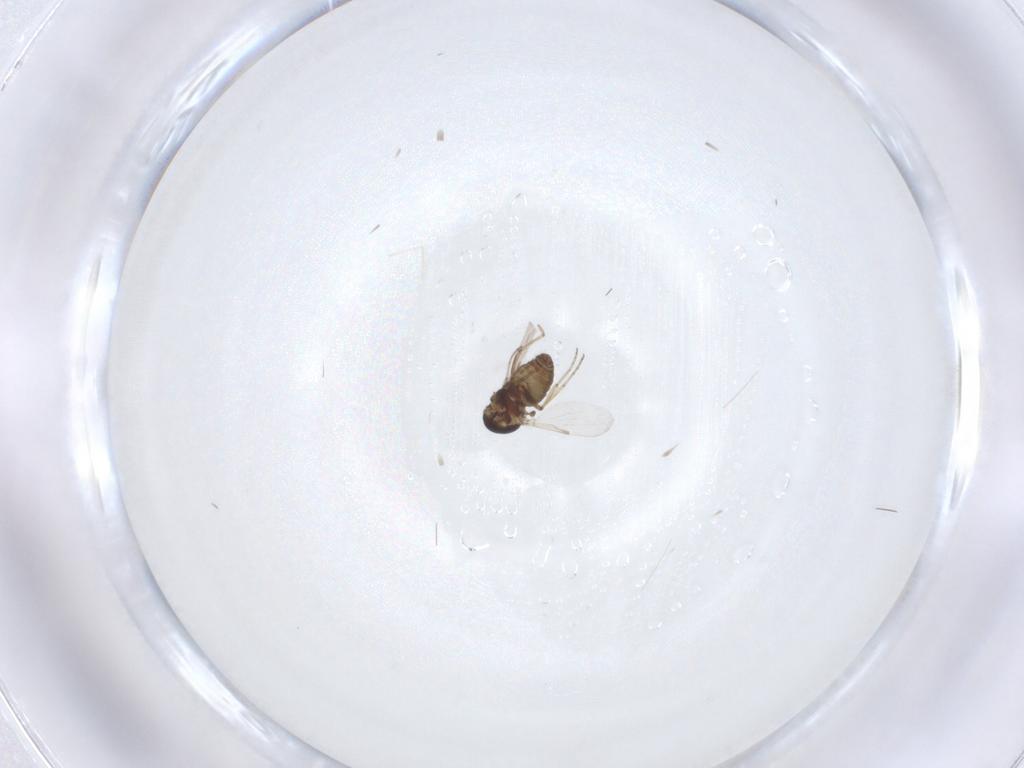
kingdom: Animalia
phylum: Arthropoda
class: Insecta
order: Diptera
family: Ceratopogonidae
